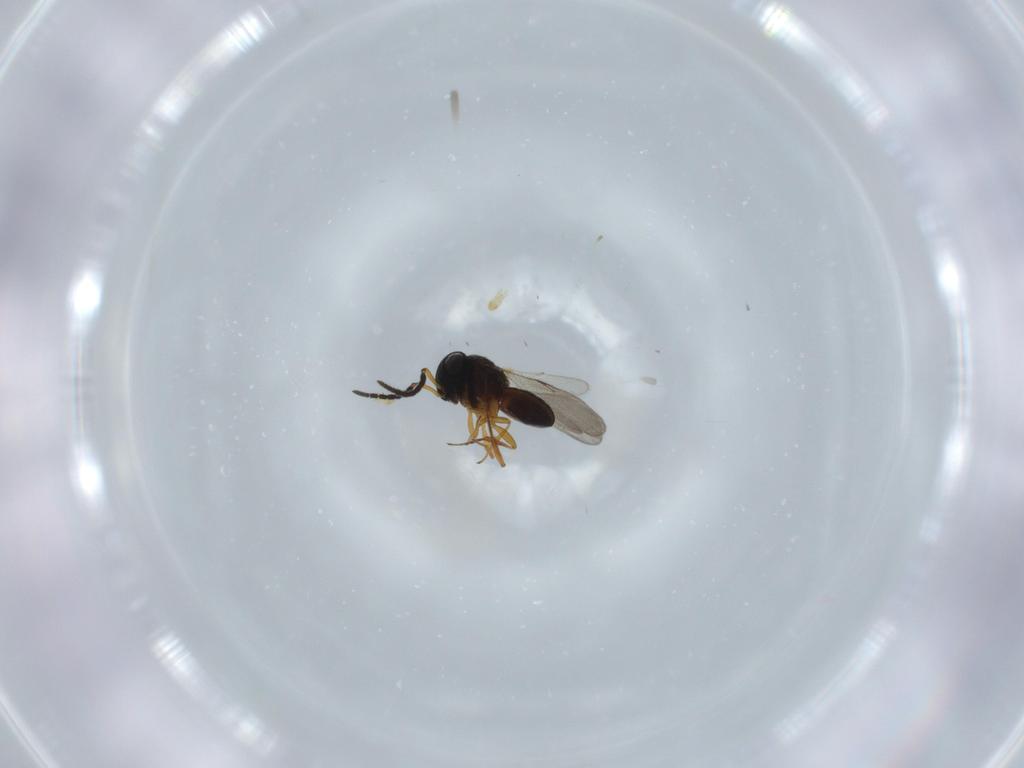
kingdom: Animalia
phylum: Arthropoda
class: Insecta
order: Hymenoptera
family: Scelionidae
